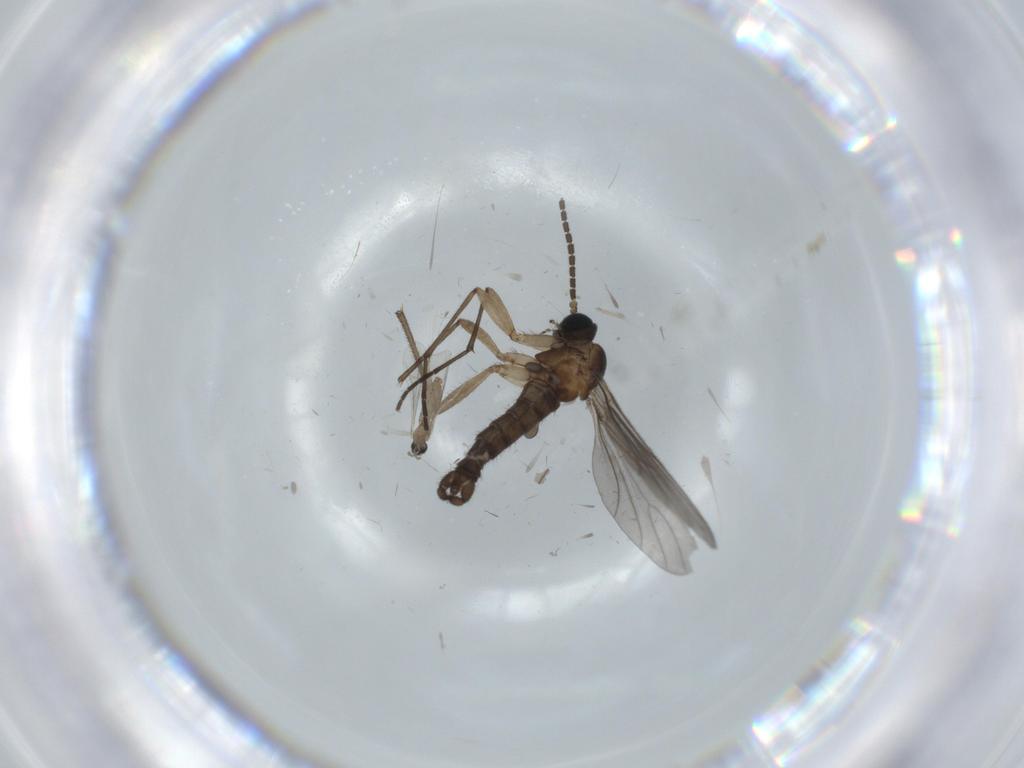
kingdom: Animalia
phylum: Arthropoda
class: Insecta
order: Diptera
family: Cecidomyiidae
